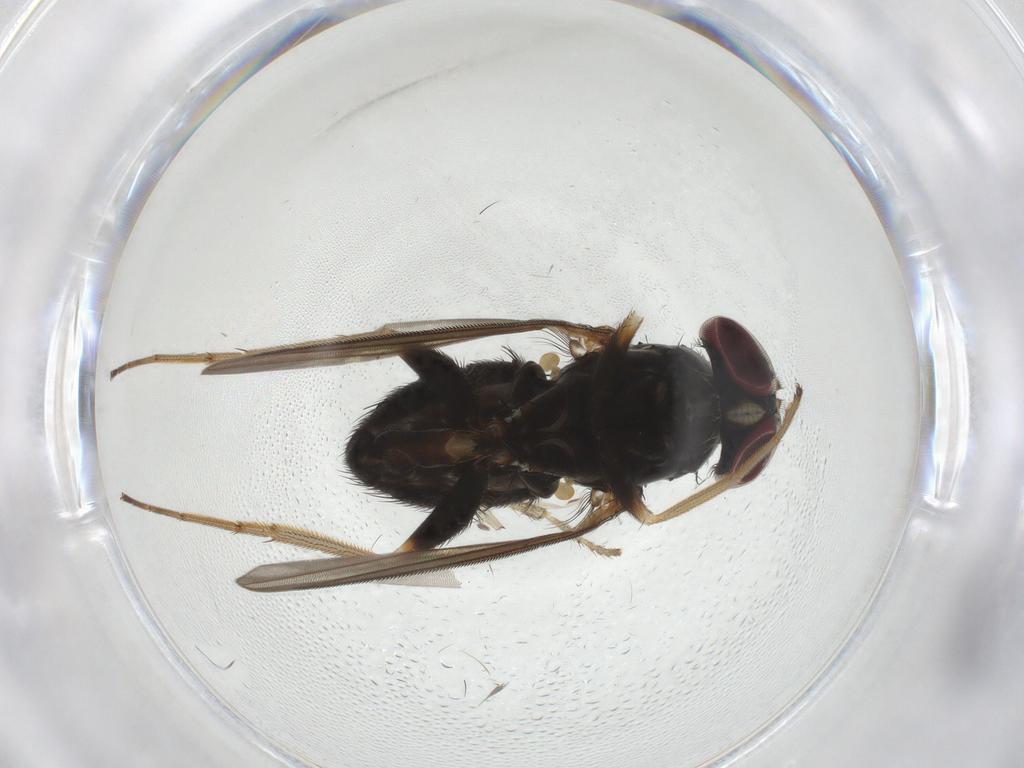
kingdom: Animalia
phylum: Arthropoda
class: Insecta
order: Diptera
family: Dolichopodidae
